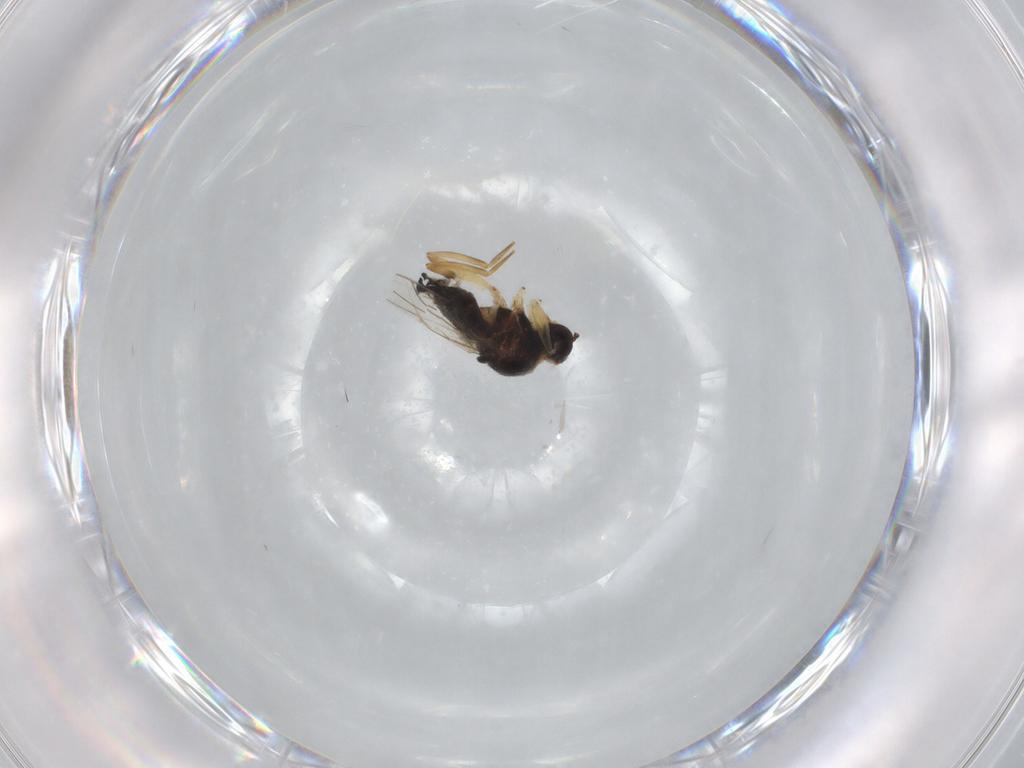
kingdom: Animalia
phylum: Arthropoda
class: Insecta
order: Diptera
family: Hybotidae
